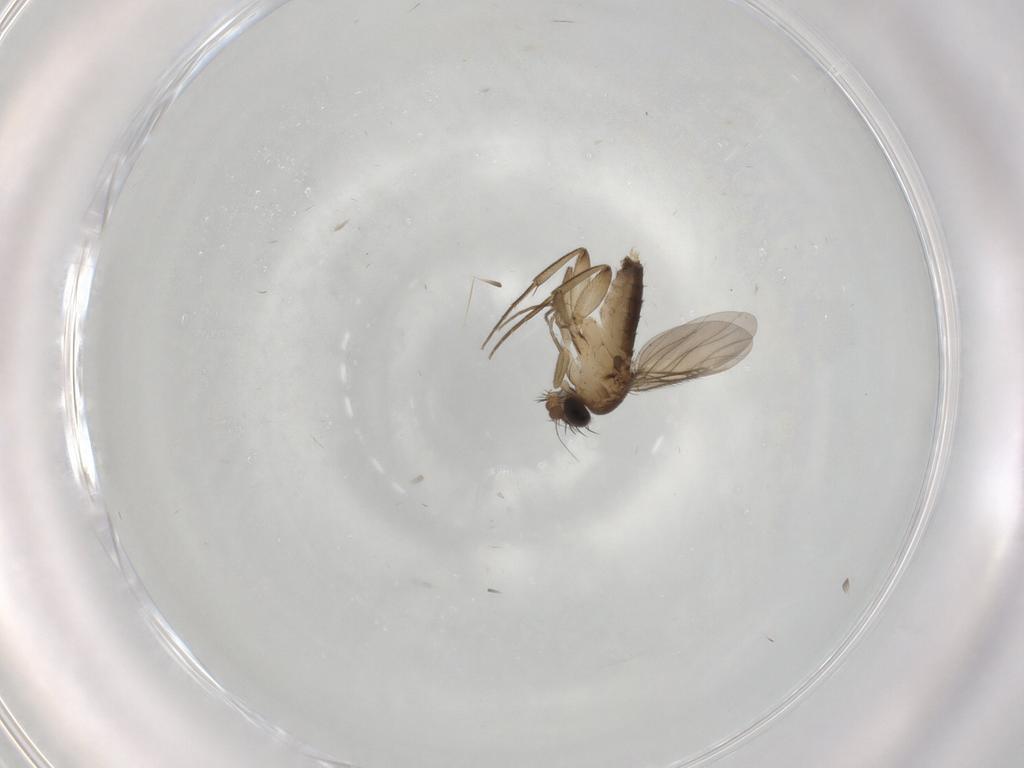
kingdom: Animalia
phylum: Arthropoda
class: Insecta
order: Diptera
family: Phoridae
